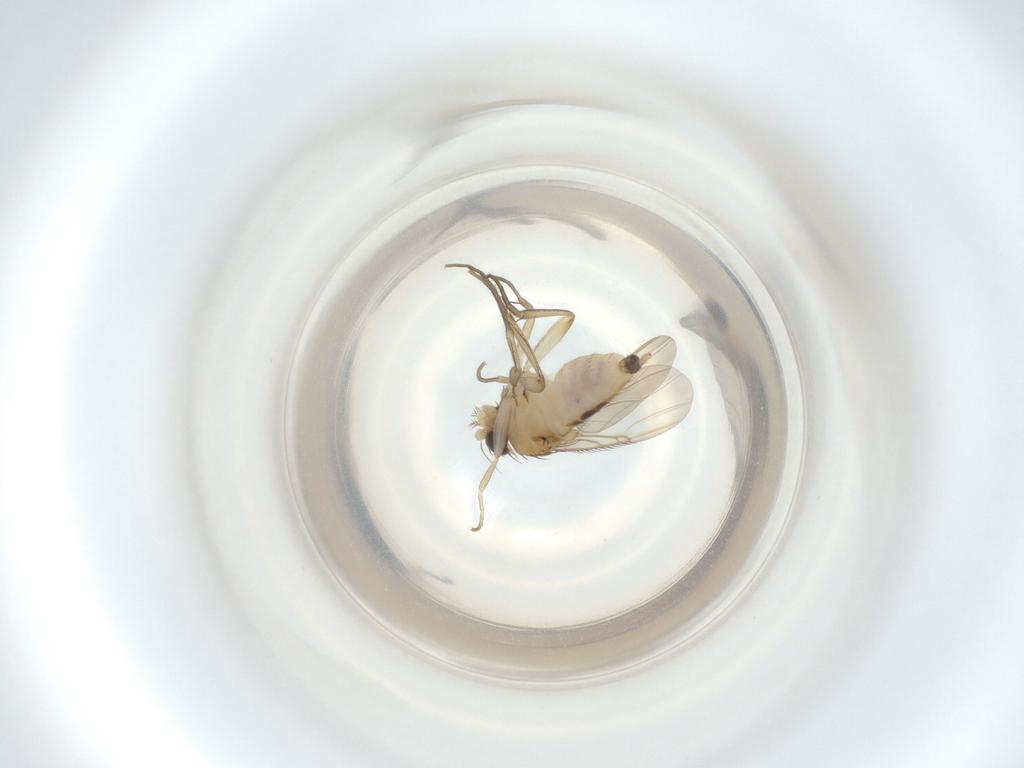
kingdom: Animalia
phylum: Arthropoda
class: Insecta
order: Diptera
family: Phoridae
